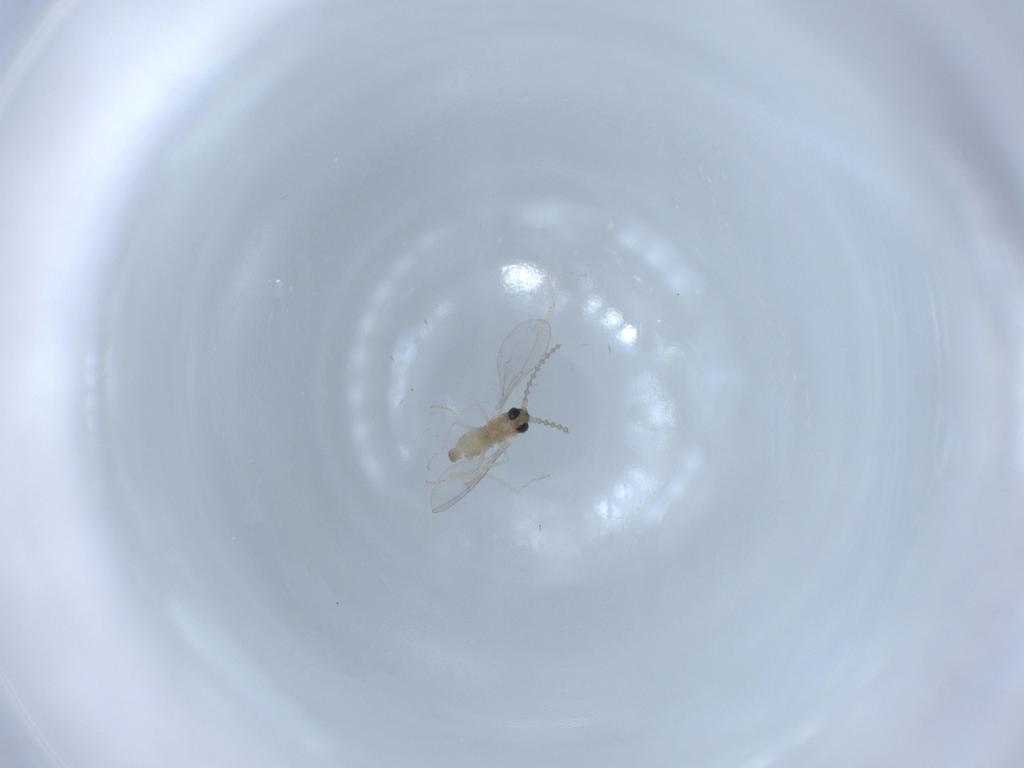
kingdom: Animalia
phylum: Arthropoda
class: Insecta
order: Diptera
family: Cecidomyiidae
